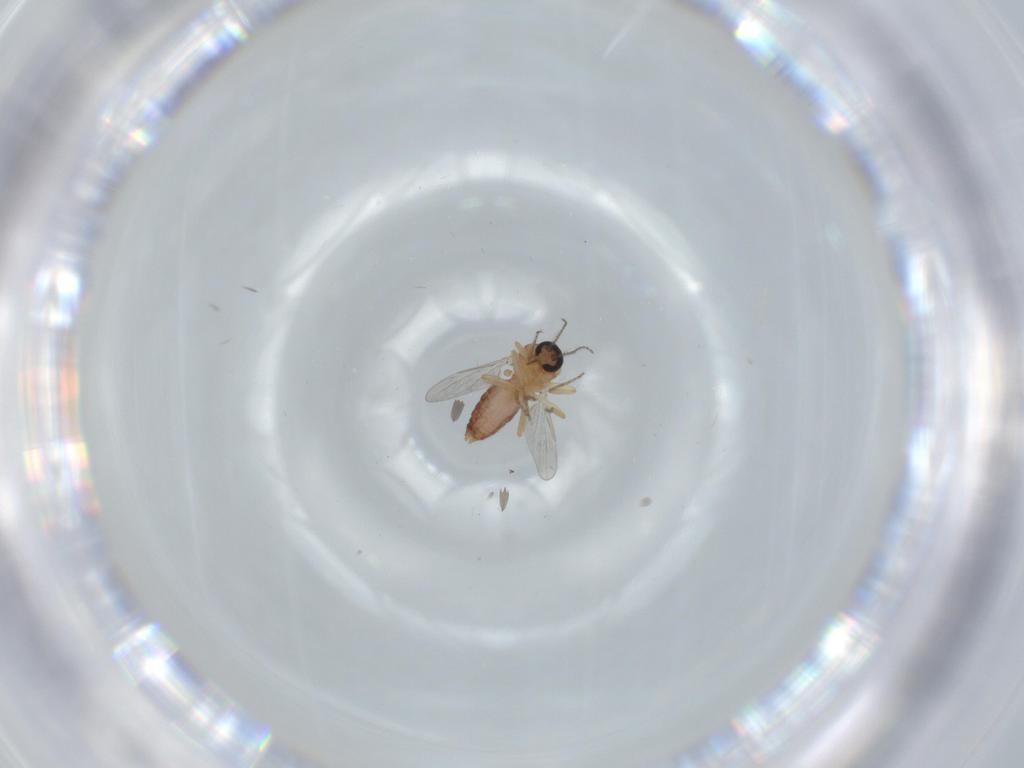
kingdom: Animalia
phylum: Arthropoda
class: Insecta
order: Diptera
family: Ceratopogonidae
